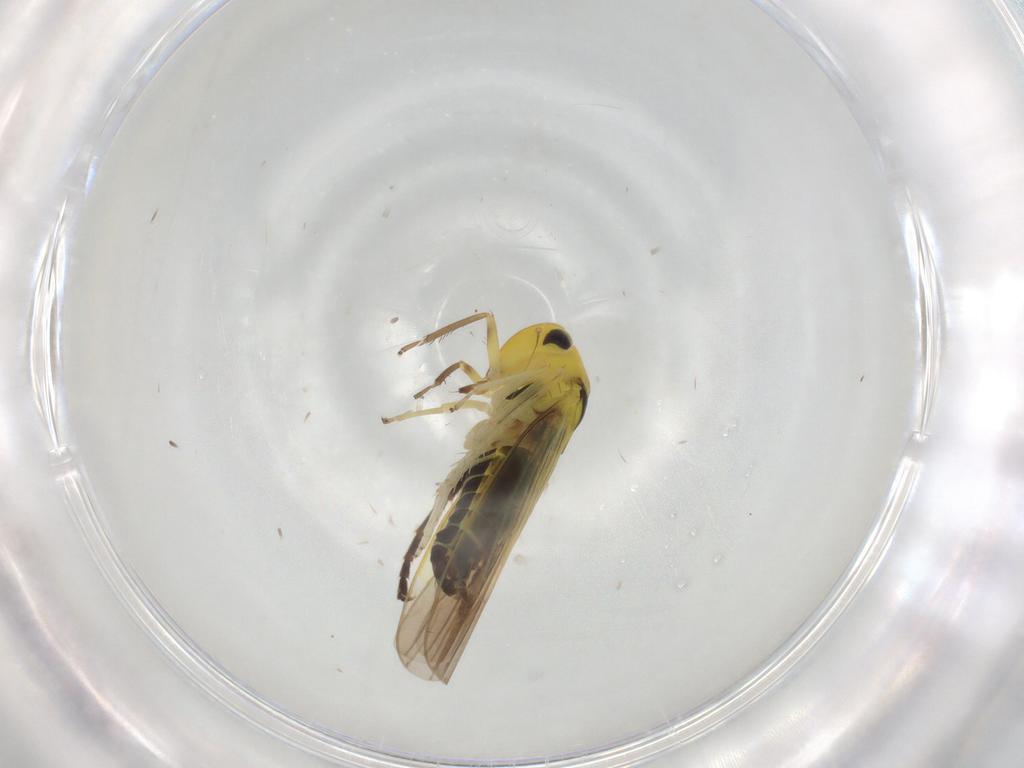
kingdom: Animalia
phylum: Arthropoda
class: Insecta
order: Hemiptera
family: Cicadellidae
